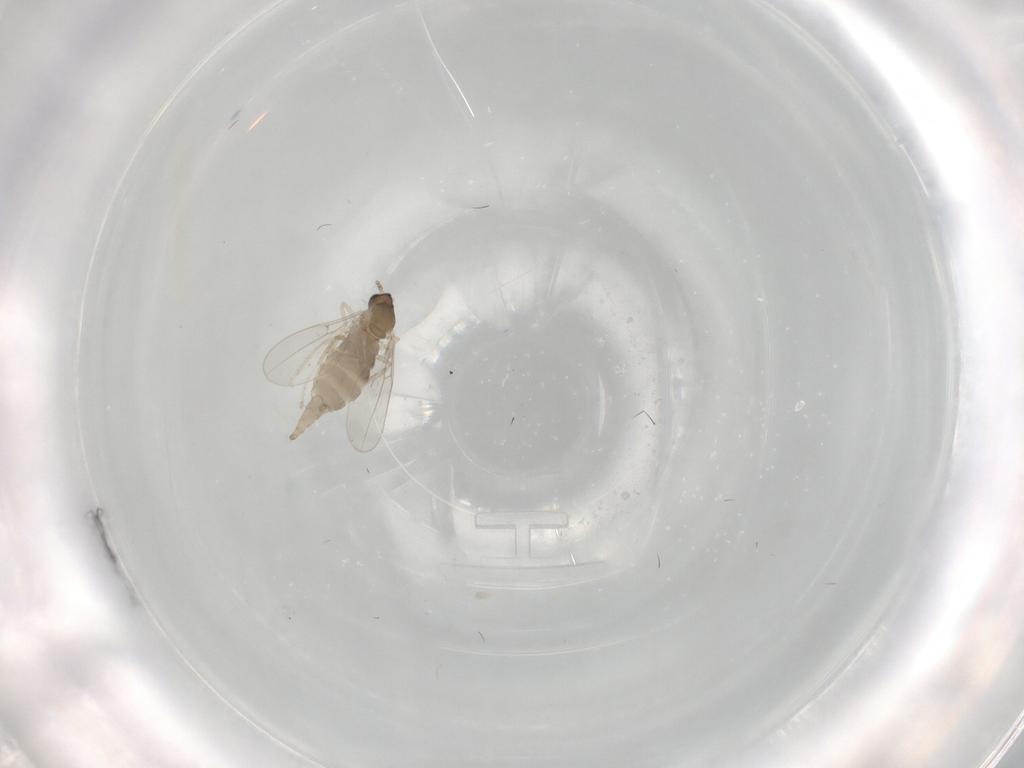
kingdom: Animalia
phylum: Arthropoda
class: Insecta
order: Diptera
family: Cecidomyiidae
